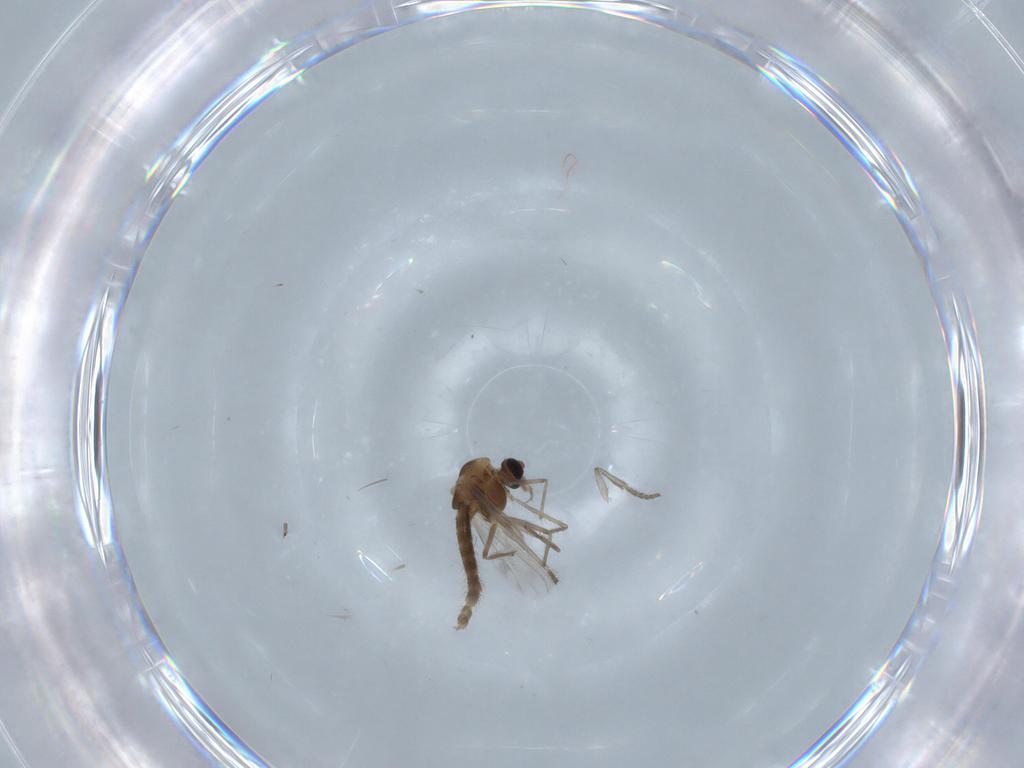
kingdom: Animalia
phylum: Arthropoda
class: Insecta
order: Diptera
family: Chironomidae
